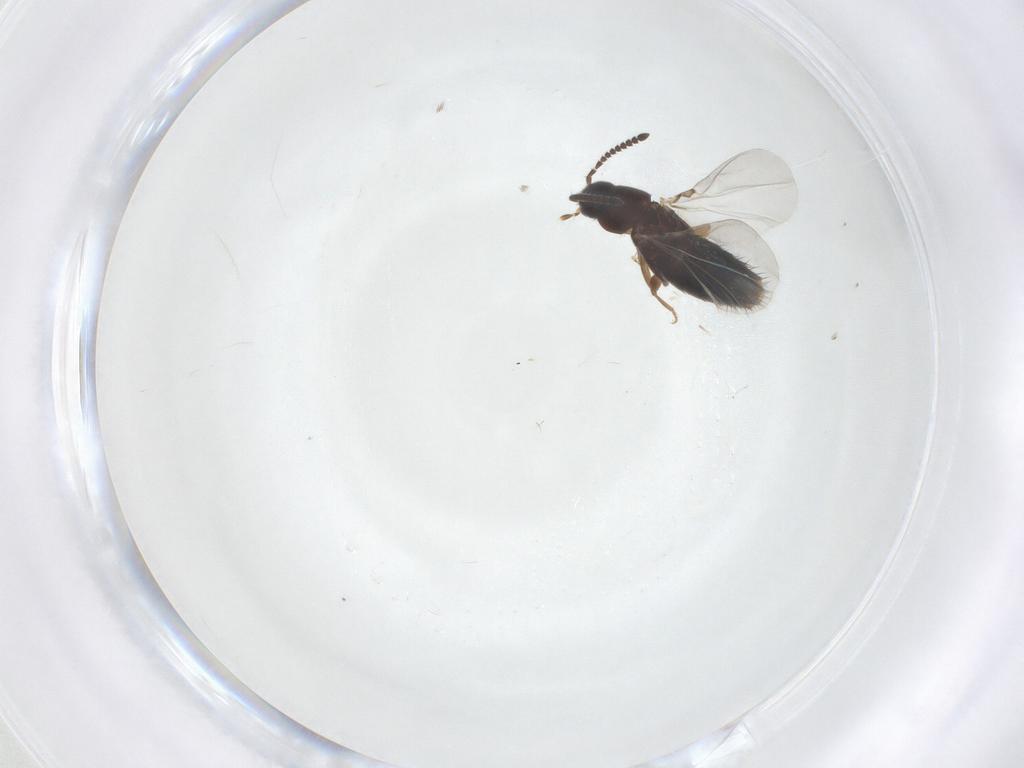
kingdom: Animalia
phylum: Arthropoda
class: Insecta
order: Coleoptera
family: Staphylinidae
